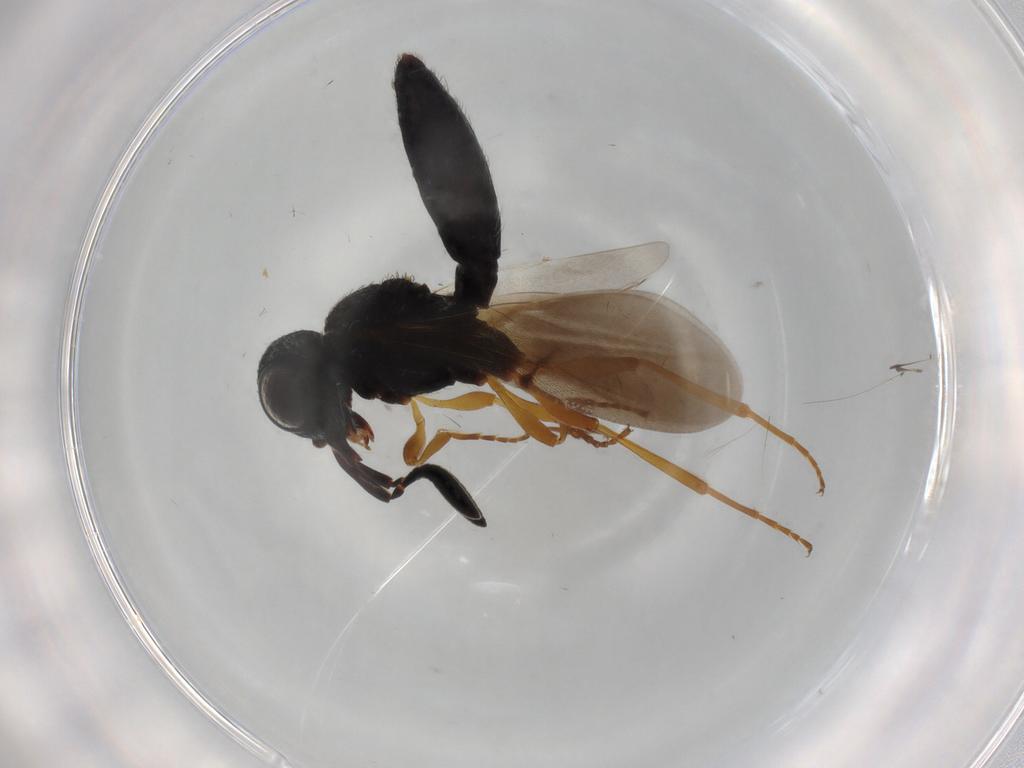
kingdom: Animalia
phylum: Arthropoda
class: Insecta
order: Hymenoptera
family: Scelionidae
